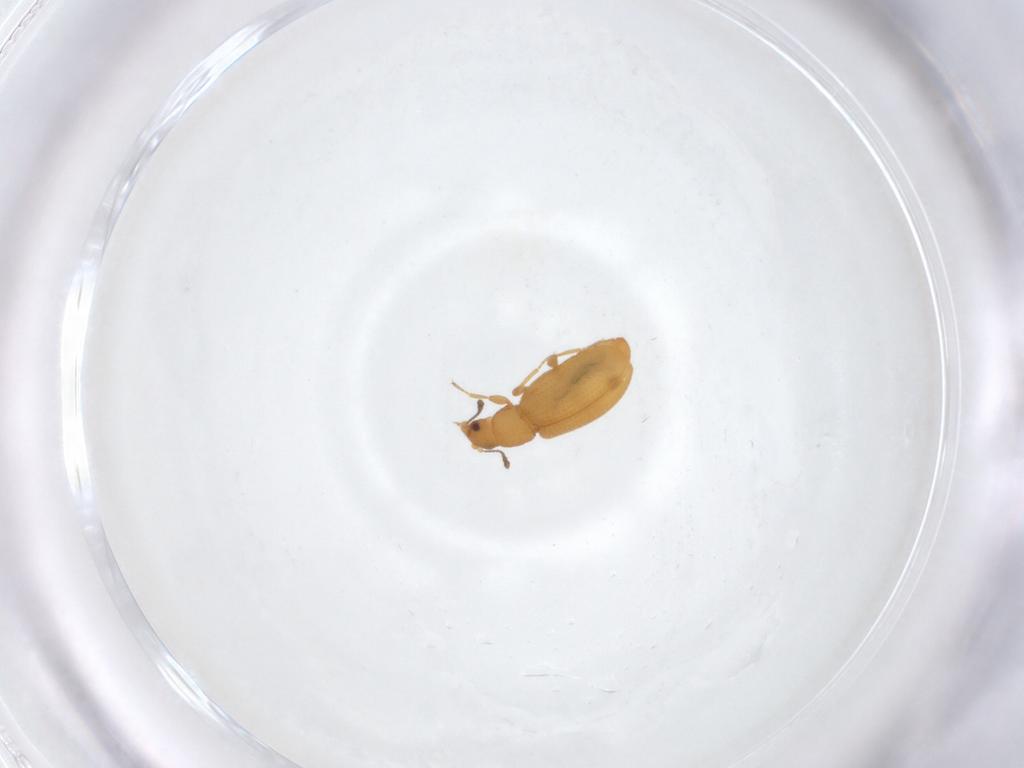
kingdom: Animalia
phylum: Arthropoda
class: Insecta
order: Coleoptera
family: Latridiidae
